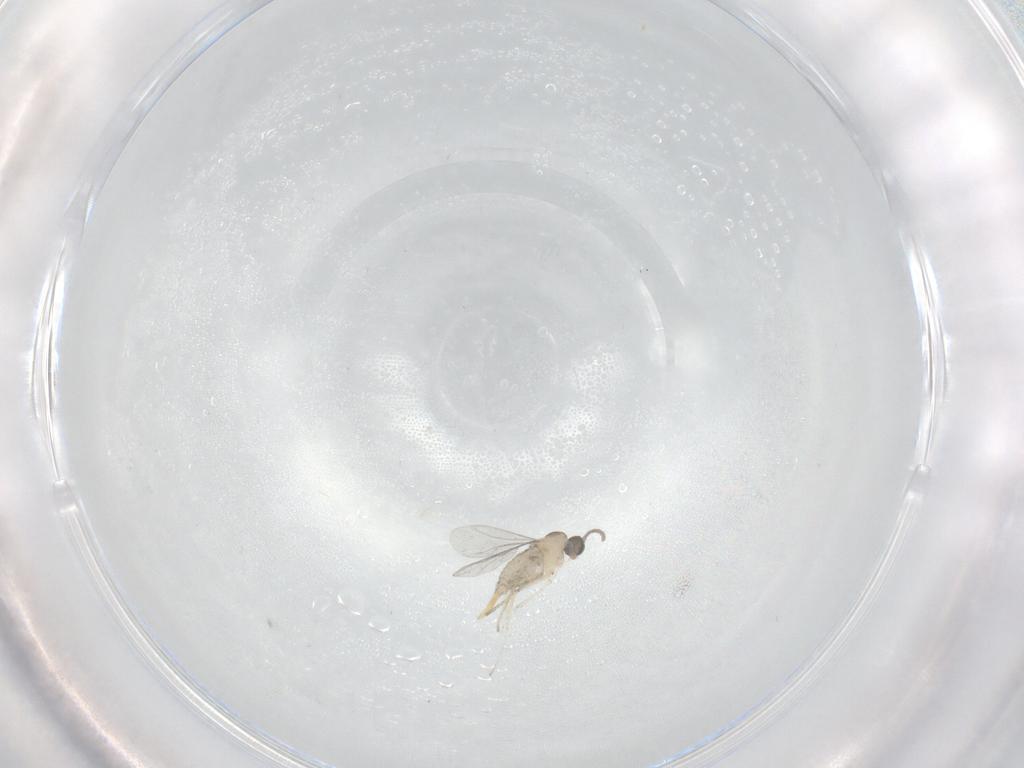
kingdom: Animalia
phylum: Arthropoda
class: Insecta
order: Diptera
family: Cecidomyiidae
